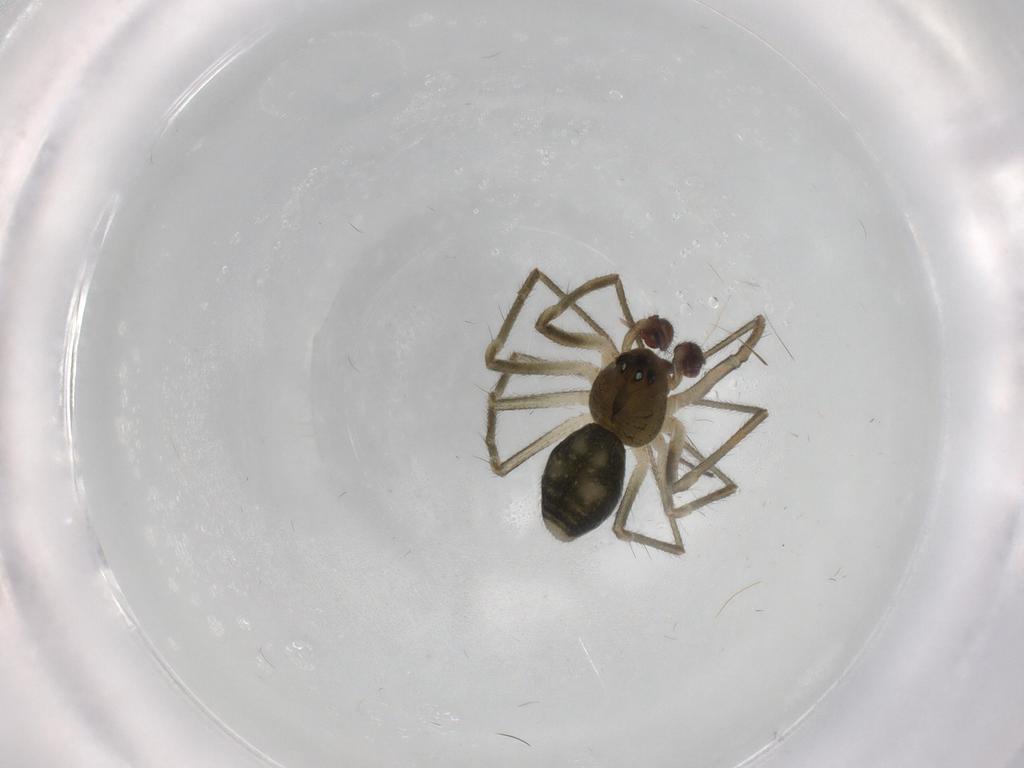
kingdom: Animalia
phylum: Arthropoda
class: Arachnida
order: Araneae
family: Linyphiidae
